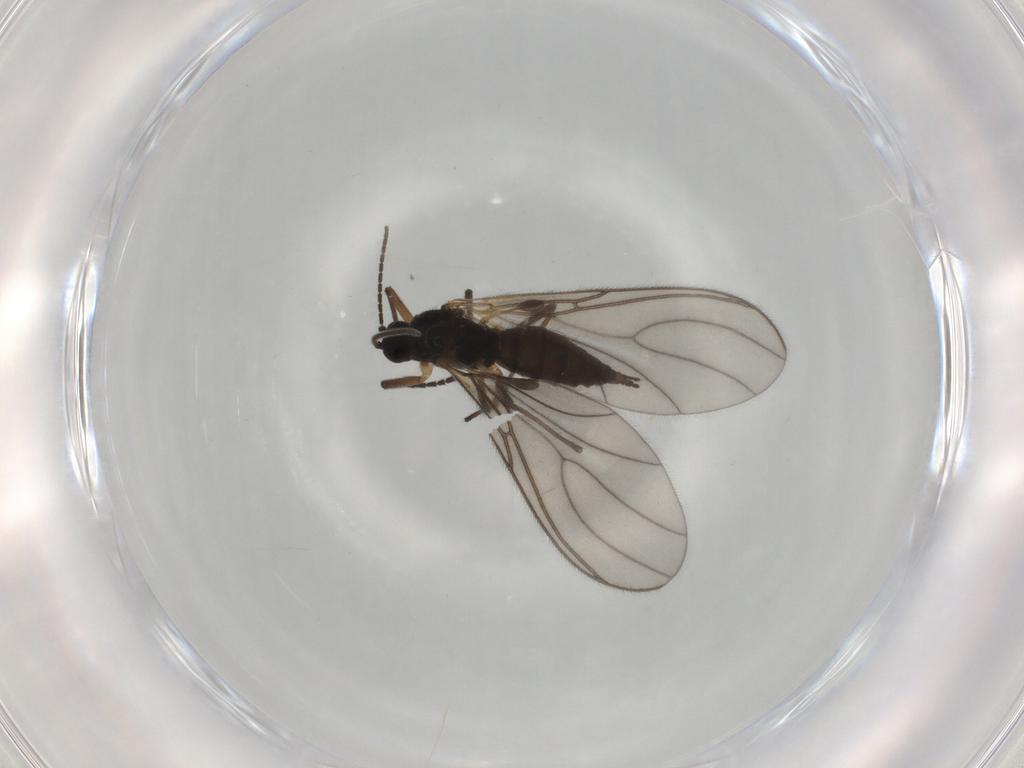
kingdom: Animalia
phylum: Arthropoda
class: Insecta
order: Diptera
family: Sciaridae
